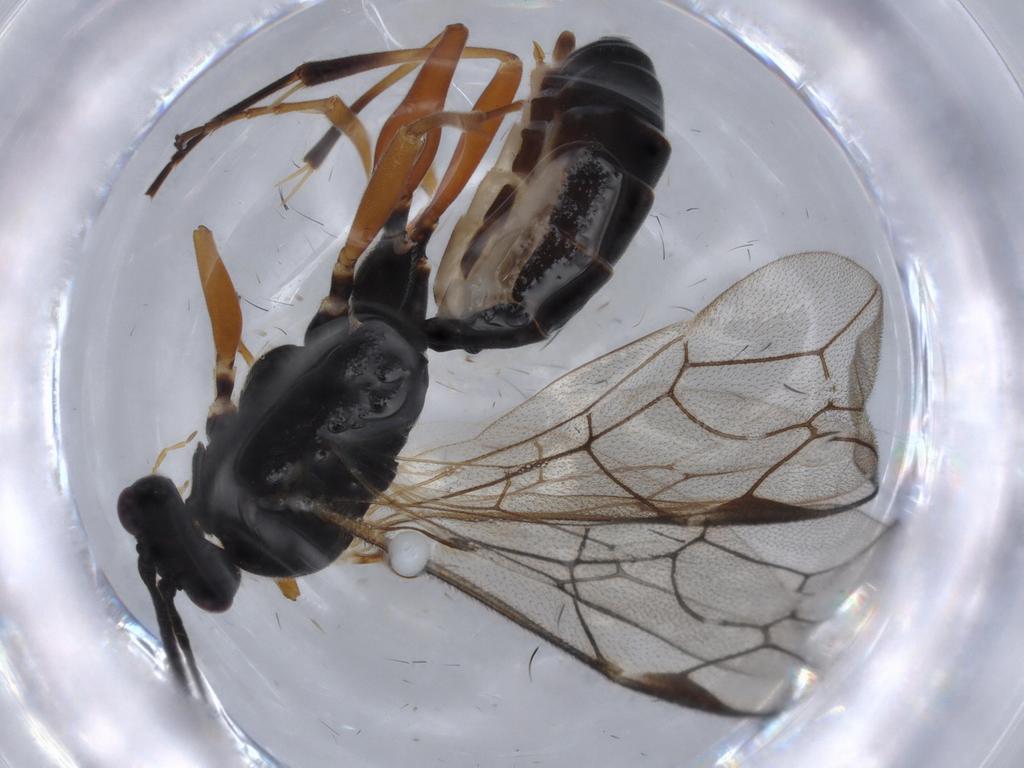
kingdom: Animalia
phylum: Arthropoda
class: Insecta
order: Hymenoptera
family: Ichneumonidae
